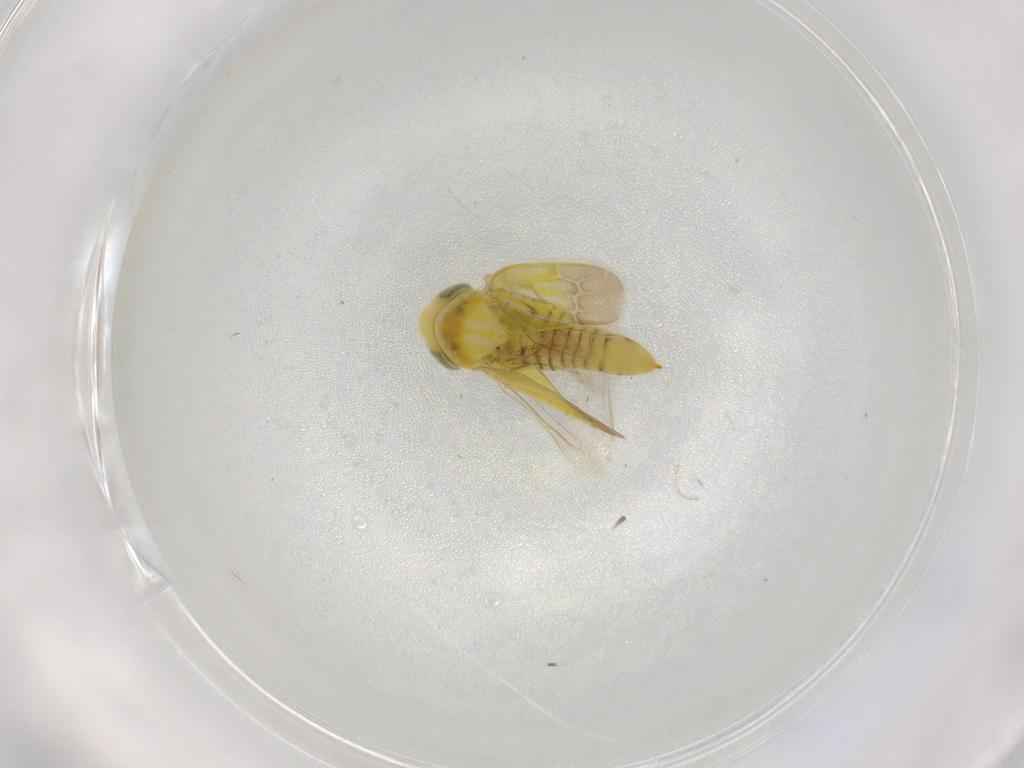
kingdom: Animalia
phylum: Arthropoda
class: Insecta
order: Hemiptera
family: Cicadellidae
